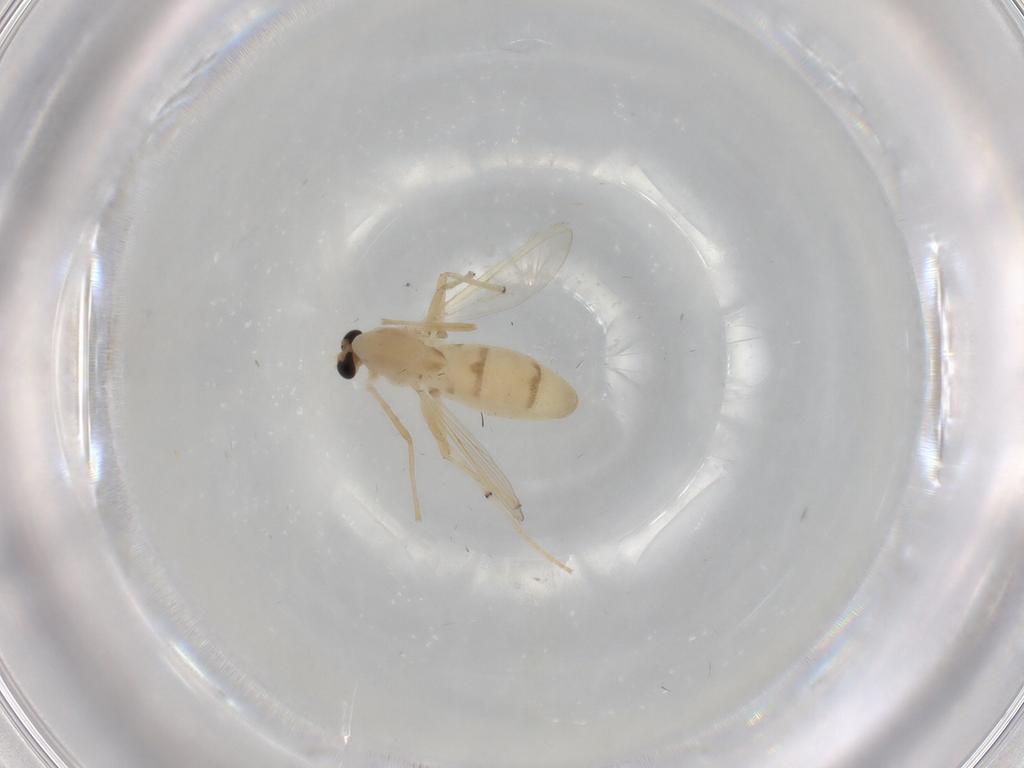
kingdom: Animalia
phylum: Arthropoda
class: Insecta
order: Diptera
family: Chironomidae
